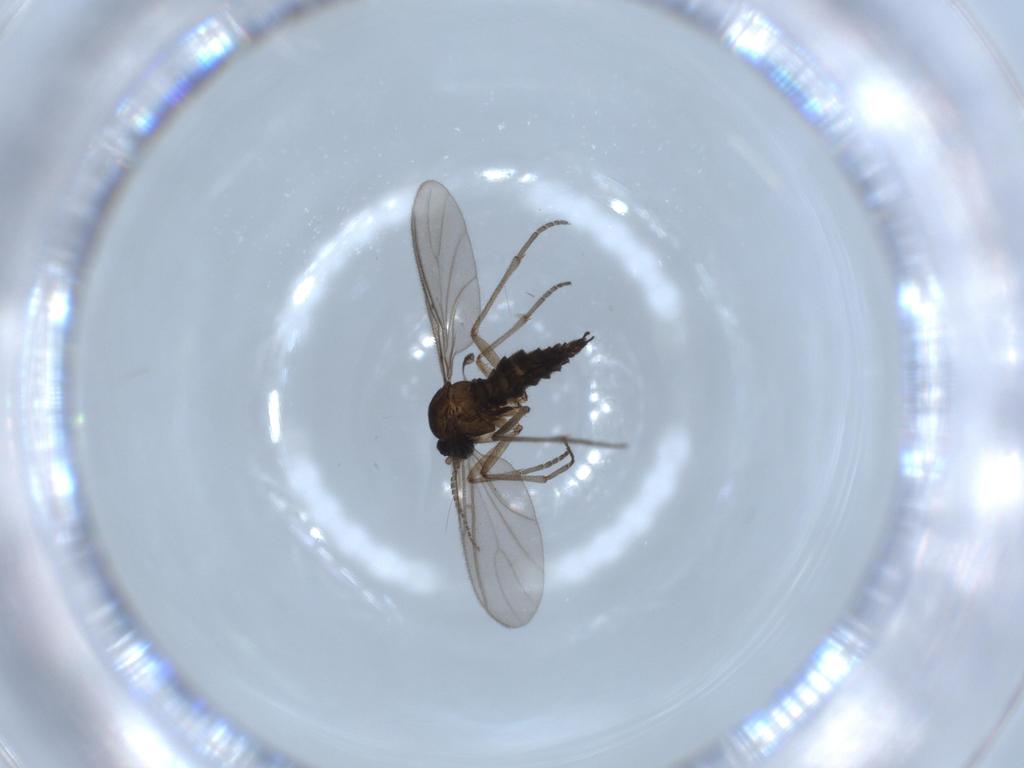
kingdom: Animalia
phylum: Arthropoda
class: Insecta
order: Diptera
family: Sciaridae
